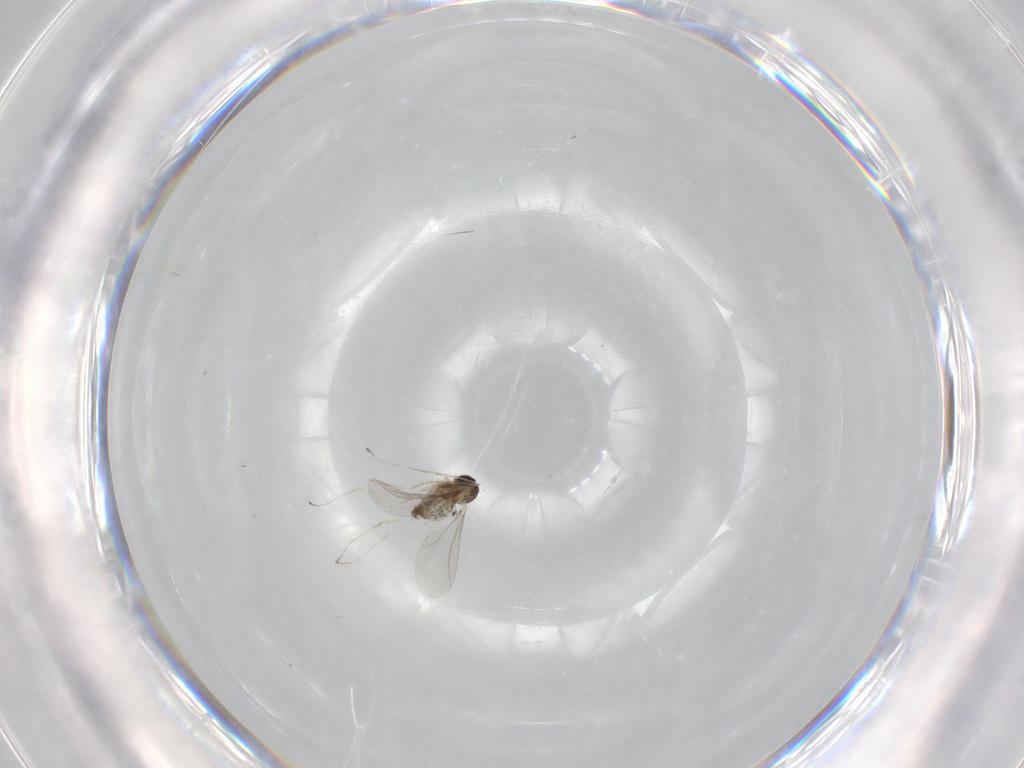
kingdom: Animalia
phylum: Arthropoda
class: Insecta
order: Diptera
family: Cecidomyiidae
